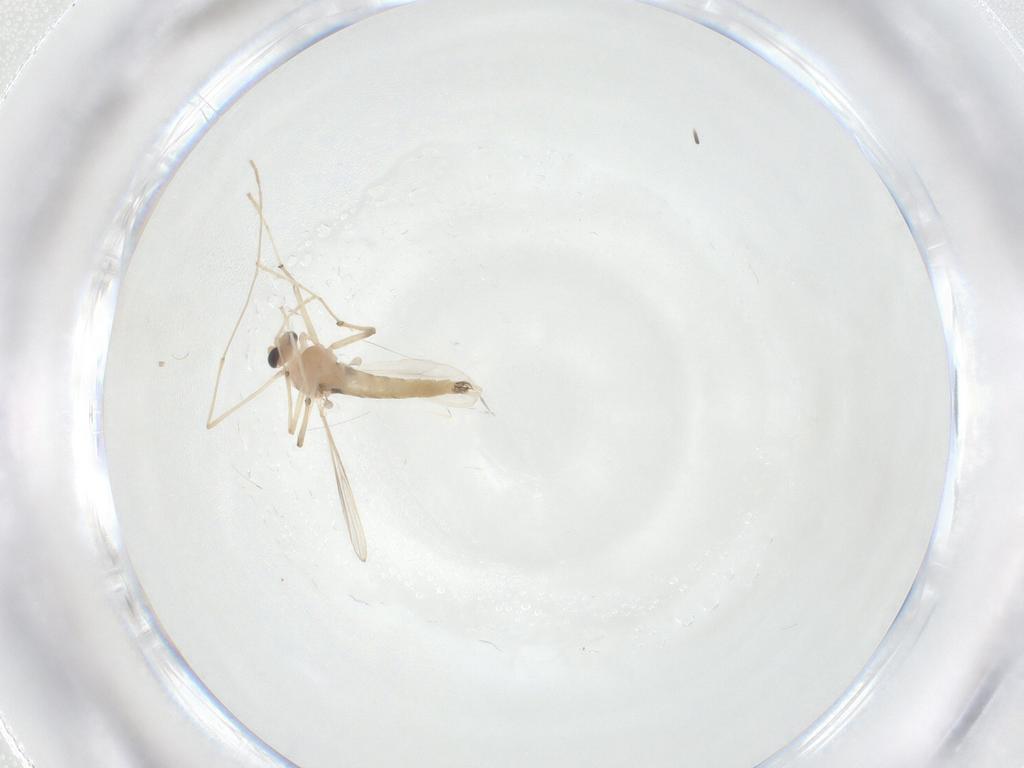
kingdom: Animalia
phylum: Arthropoda
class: Insecta
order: Diptera
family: Chironomidae
